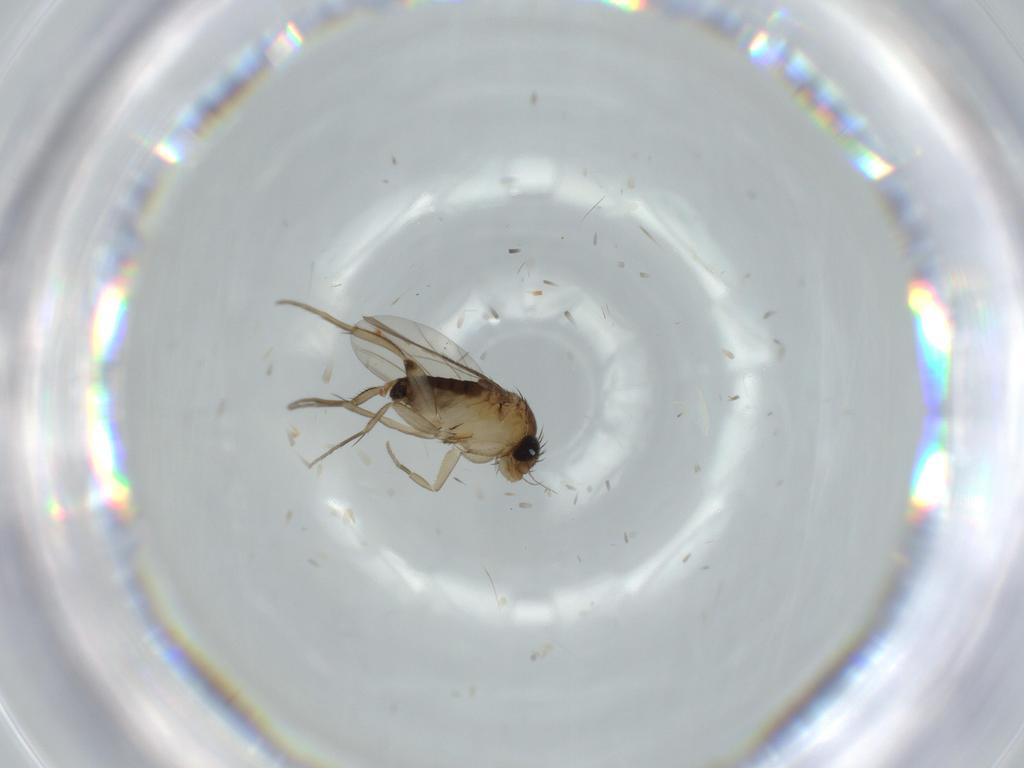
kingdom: Animalia
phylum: Arthropoda
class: Insecta
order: Diptera
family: Phoridae
